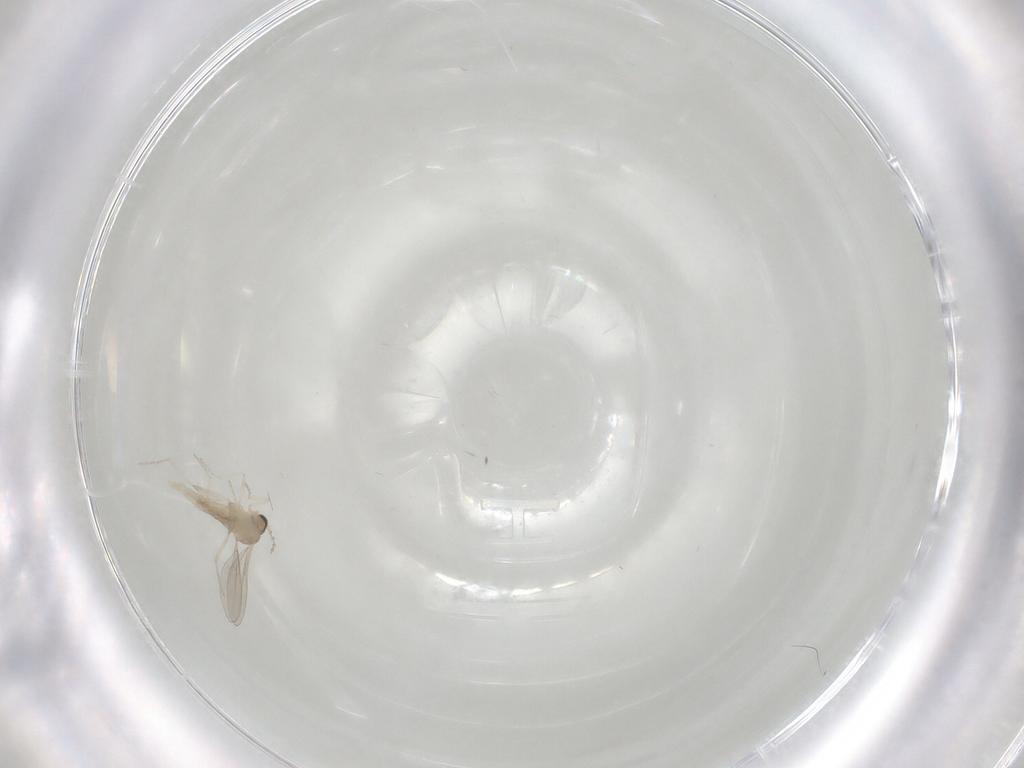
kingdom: Animalia
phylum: Arthropoda
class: Insecta
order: Diptera
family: Cecidomyiidae
